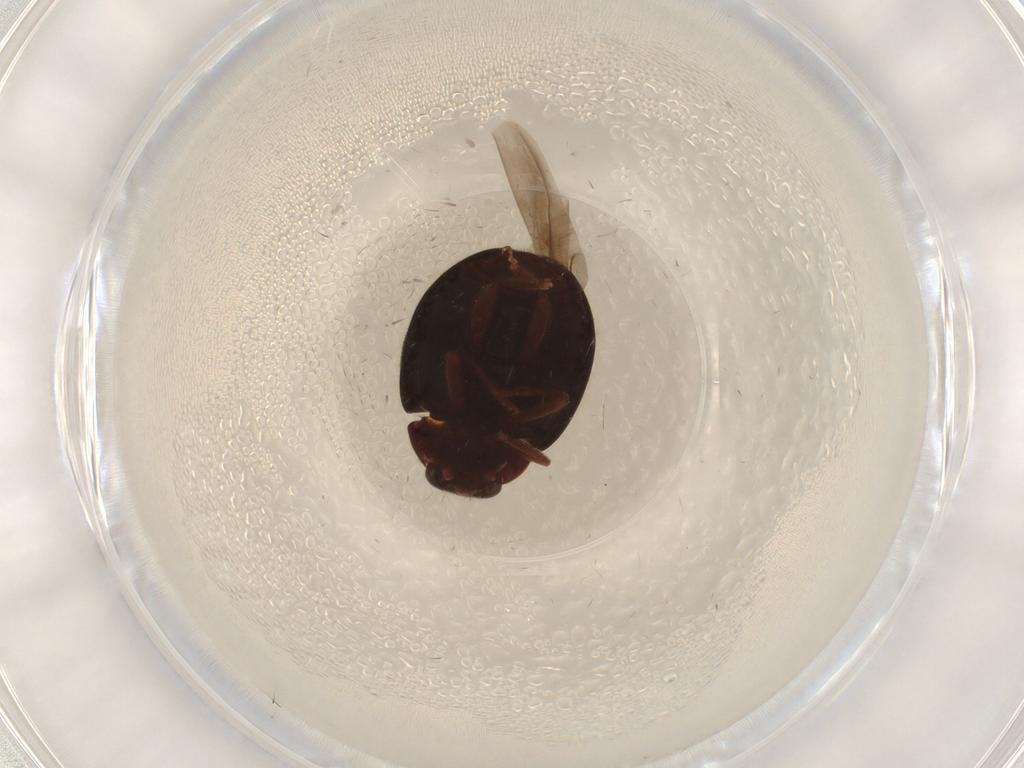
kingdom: Animalia
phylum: Arthropoda
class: Insecta
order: Coleoptera
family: Coccinellidae
